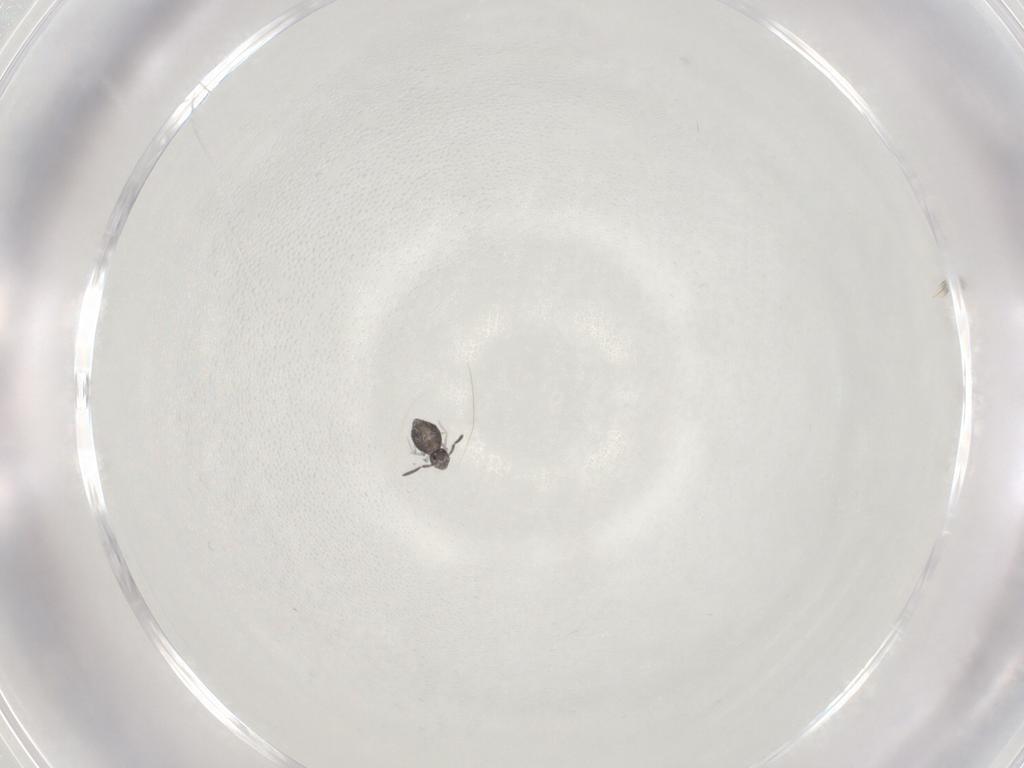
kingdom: Animalia
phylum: Arthropoda
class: Collembola
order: Symphypleona
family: Katiannidae
